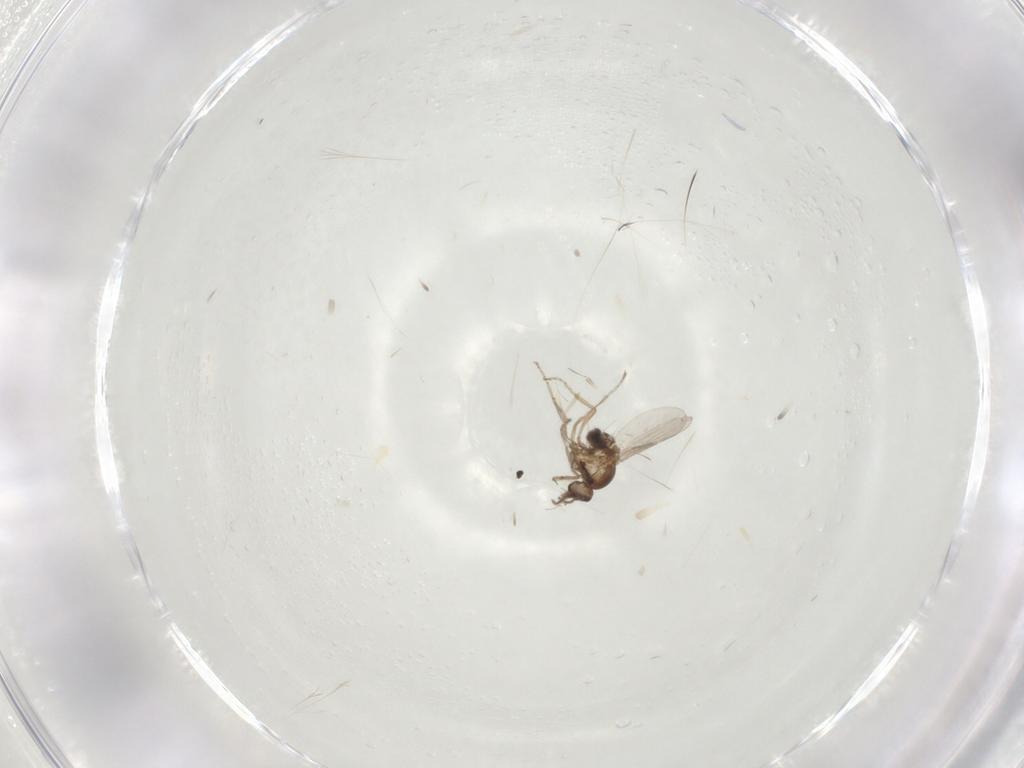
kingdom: Animalia
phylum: Arthropoda
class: Insecta
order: Diptera
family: Ceratopogonidae
